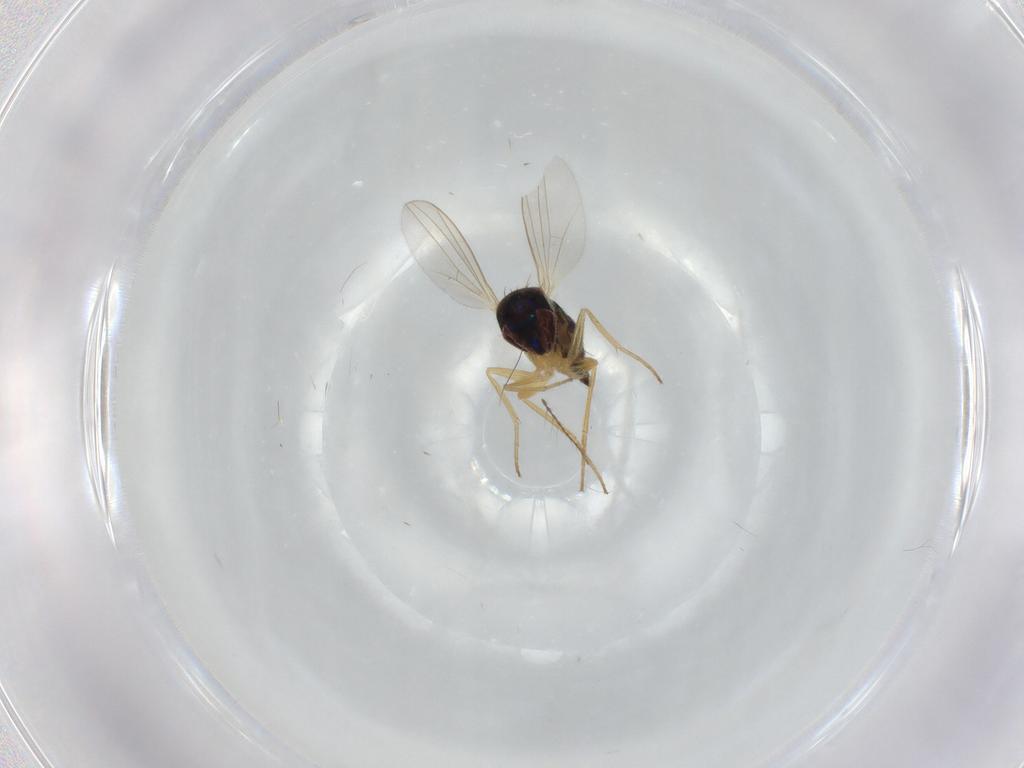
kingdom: Animalia
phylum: Arthropoda
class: Insecta
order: Diptera
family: Dolichopodidae
